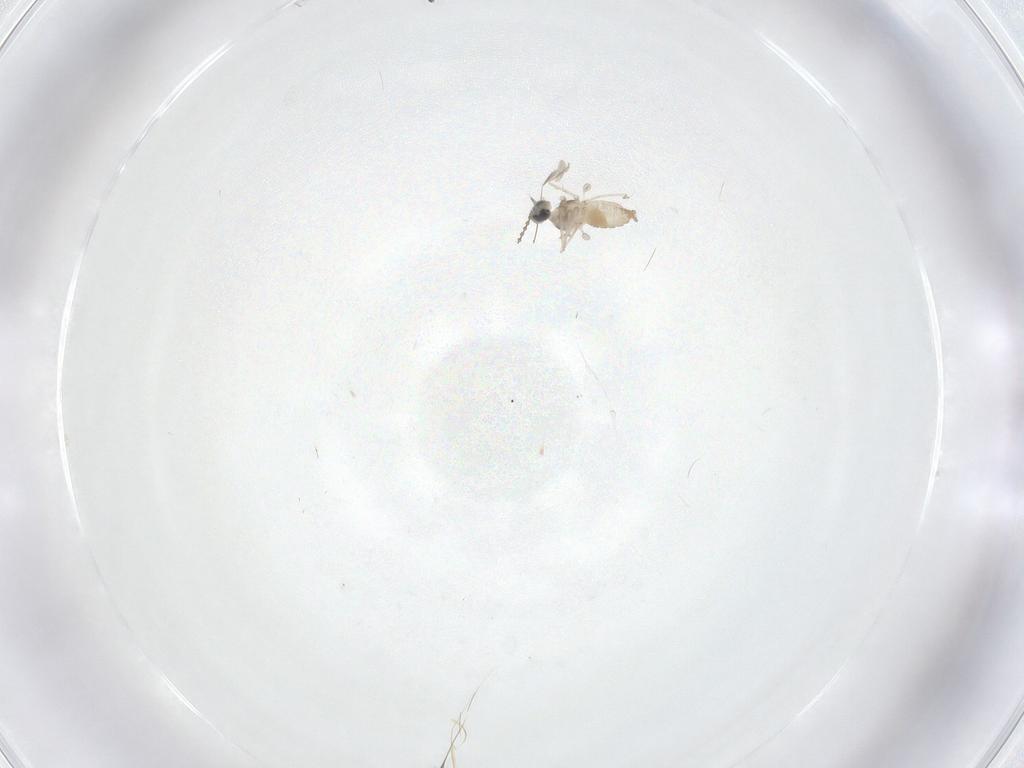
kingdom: Animalia
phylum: Arthropoda
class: Insecta
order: Diptera
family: Cecidomyiidae
